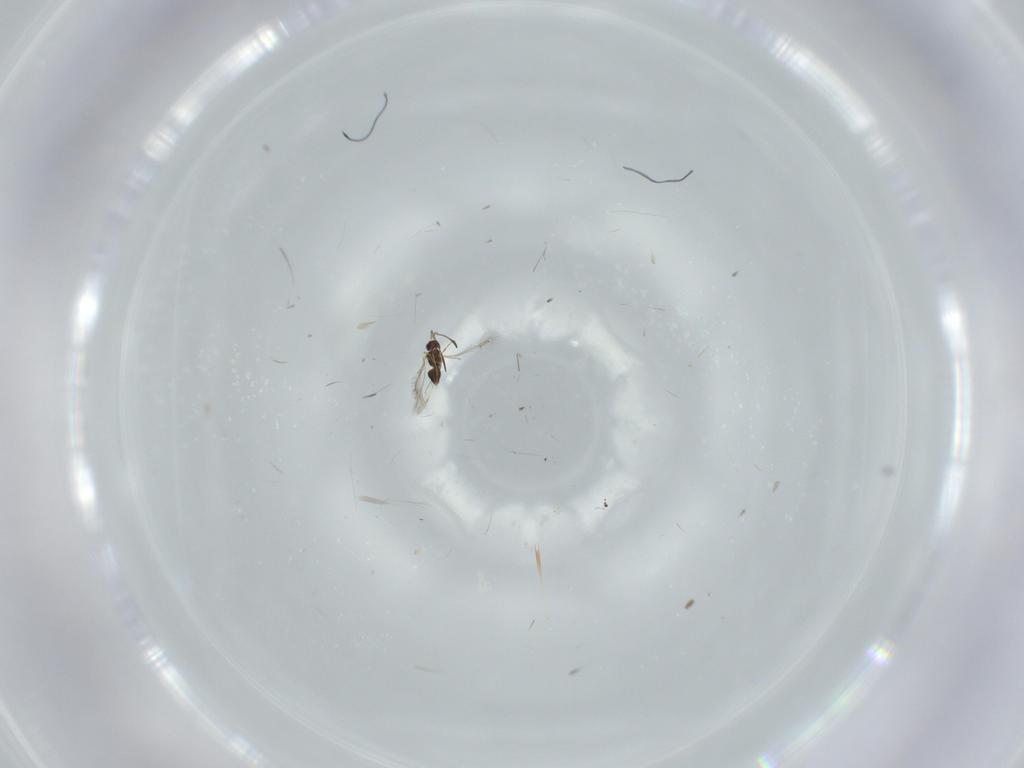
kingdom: Animalia
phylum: Arthropoda
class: Insecta
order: Hymenoptera
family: Mymaridae
